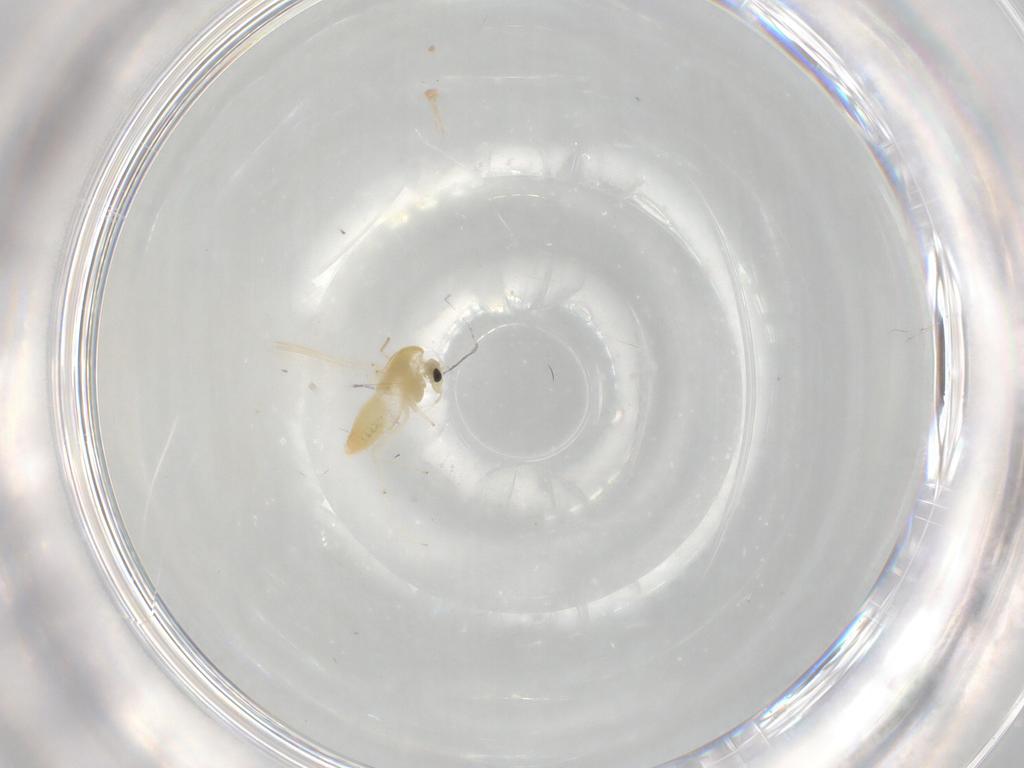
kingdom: Animalia
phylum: Arthropoda
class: Insecta
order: Diptera
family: Chironomidae
